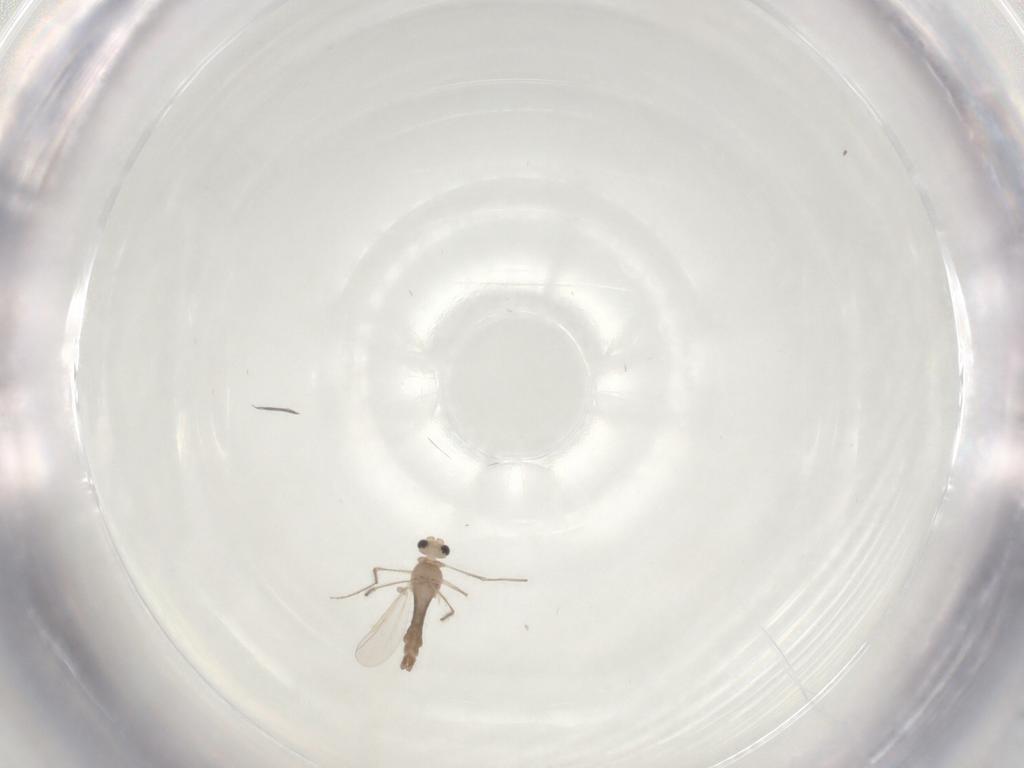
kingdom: Animalia
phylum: Arthropoda
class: Insecta
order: Diptera
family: Chironomidae
